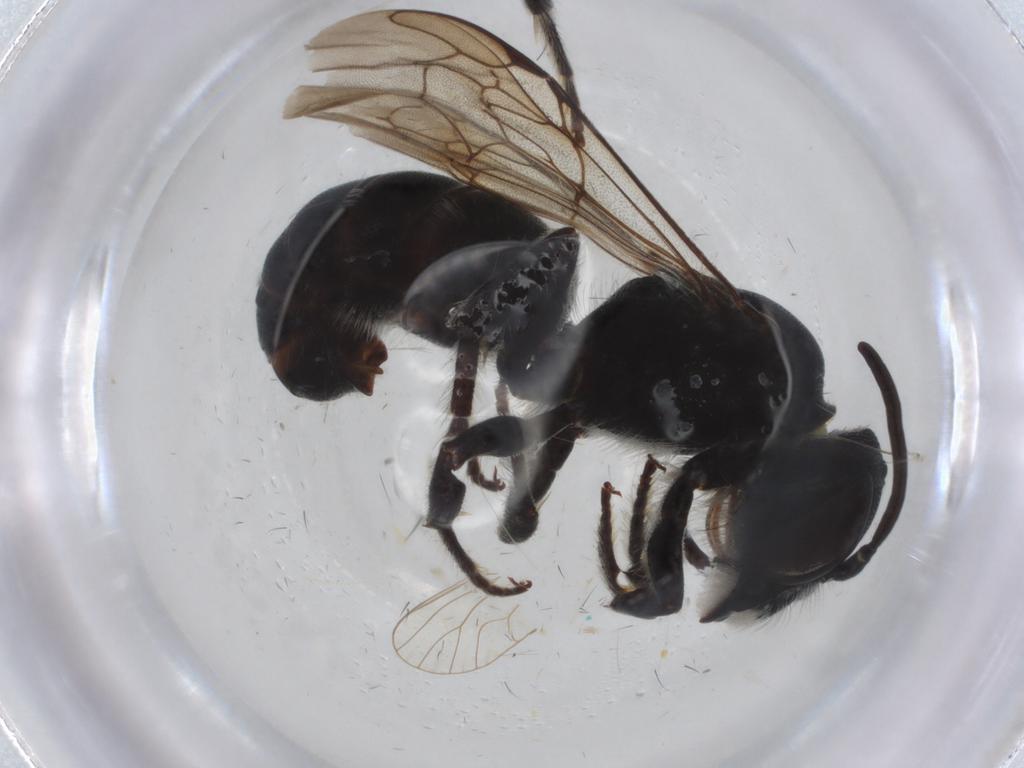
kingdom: Animalia
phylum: Arthropoda
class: Insecta
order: Hymenoptera
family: Megachilidae
